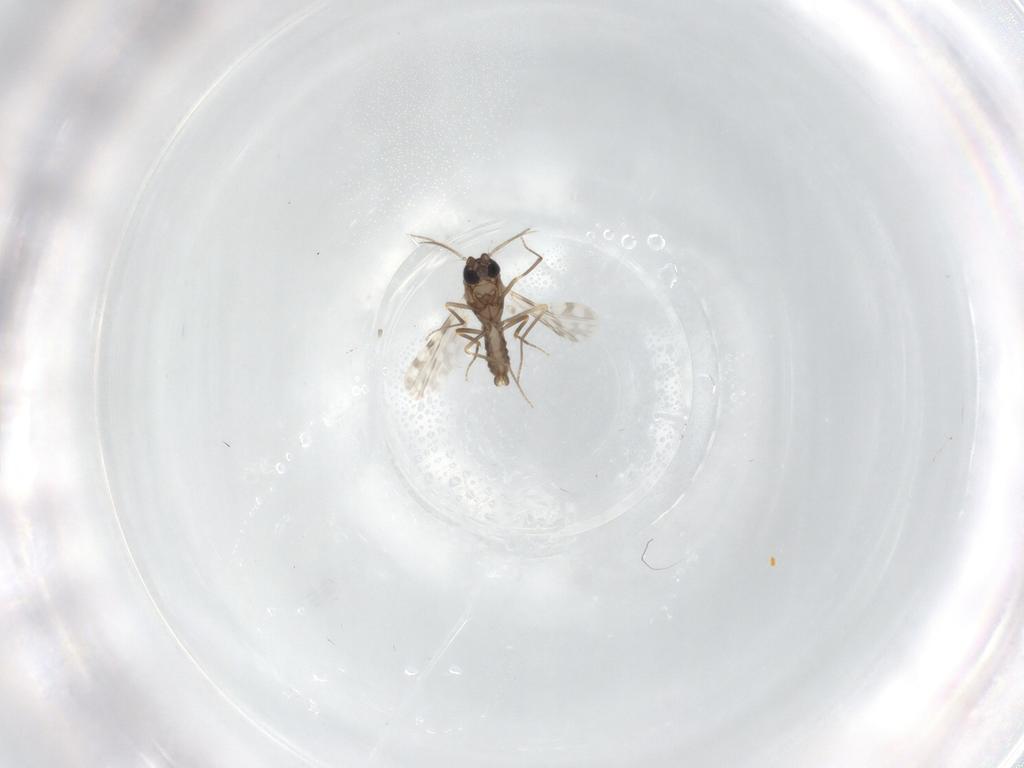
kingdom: Animalia
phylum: Arthropoda
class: Insecta
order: Diptera
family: Ceratopogonidae
